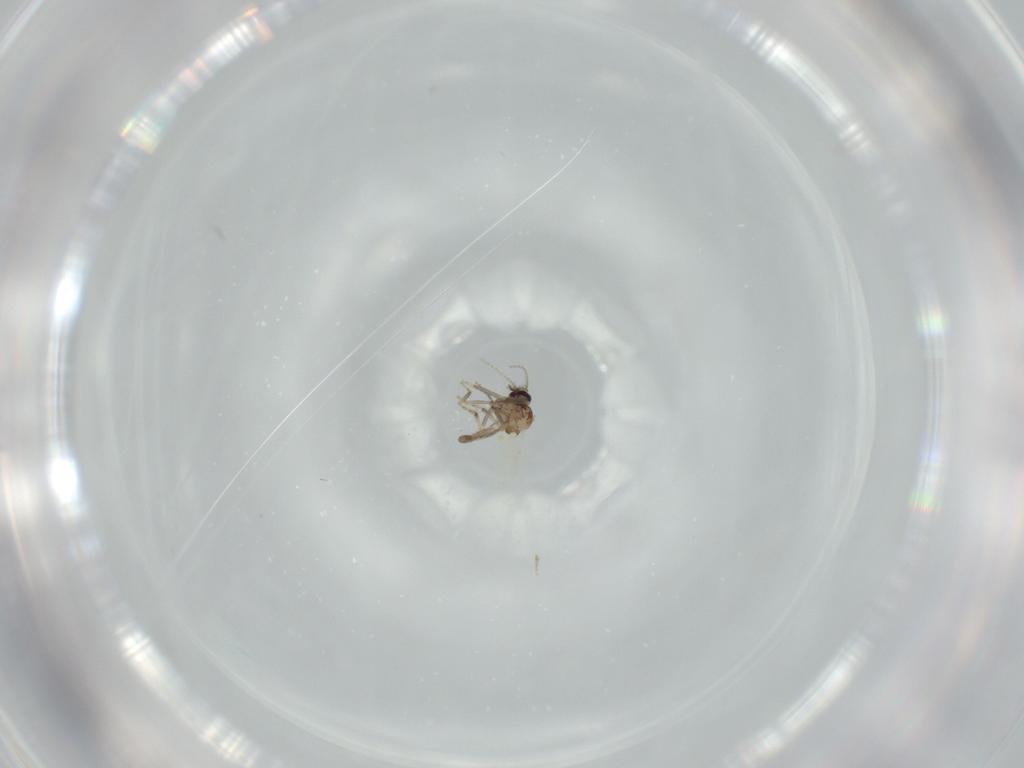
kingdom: Animalia
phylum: Arthropoda
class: Insecta
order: Diptera
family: Ceratopogonidae
